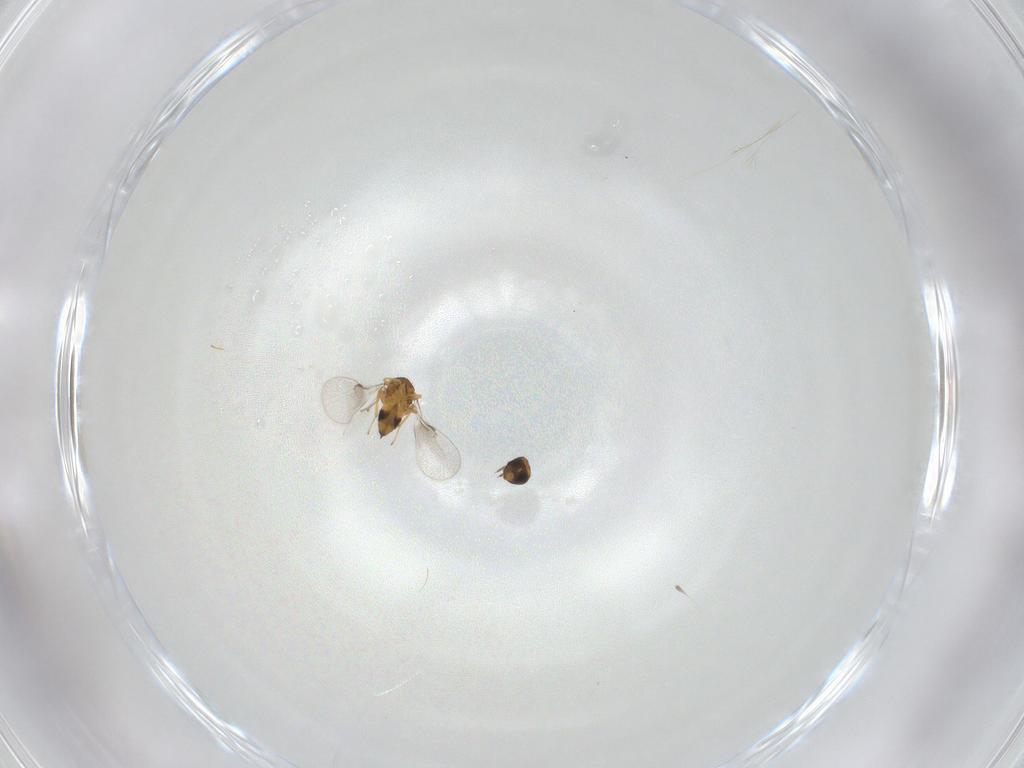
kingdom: Animalia
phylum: Arthropoda
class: Insecta
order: Hymenoptera
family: Trichogrammatidae
